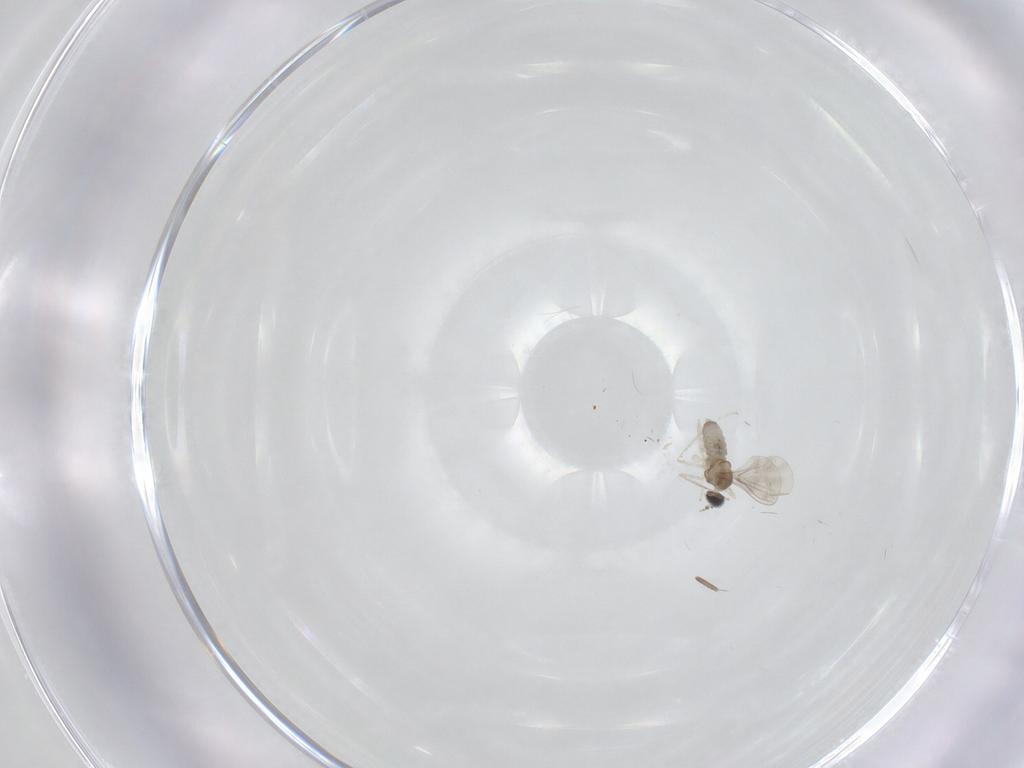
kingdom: Animalia
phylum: Arthropoda
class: Insecta
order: Diptera
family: Cecidomyiidae
